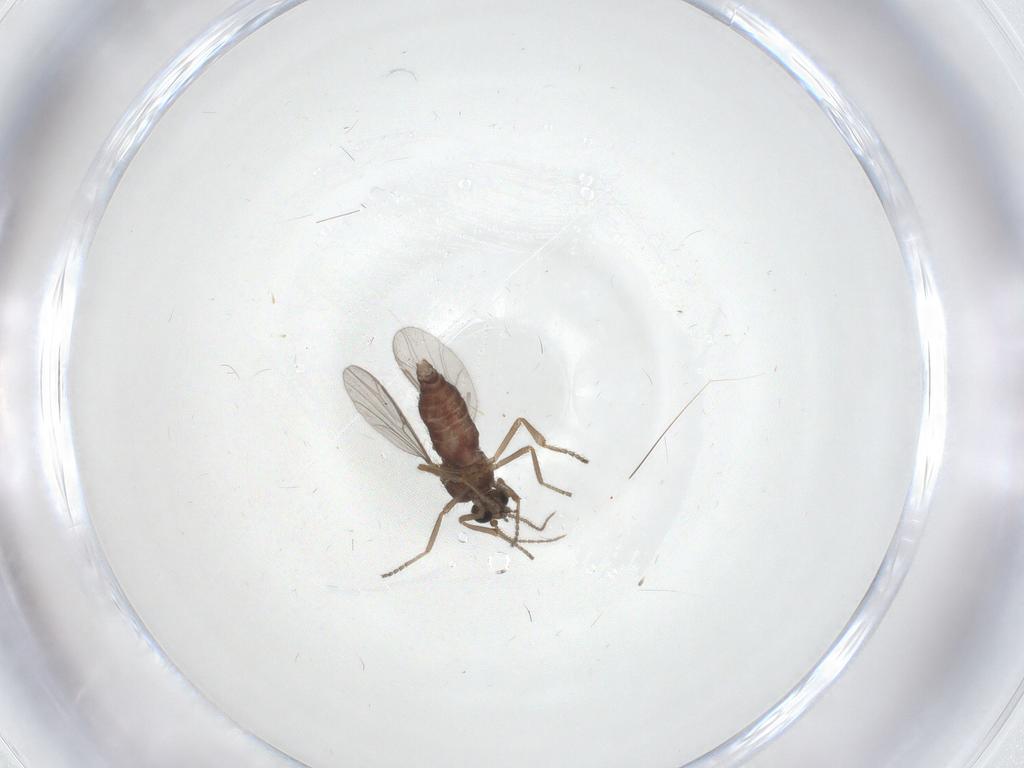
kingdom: Animalia
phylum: Arthropoda
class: Insecta
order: Diptera
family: Ceratopogonidae
